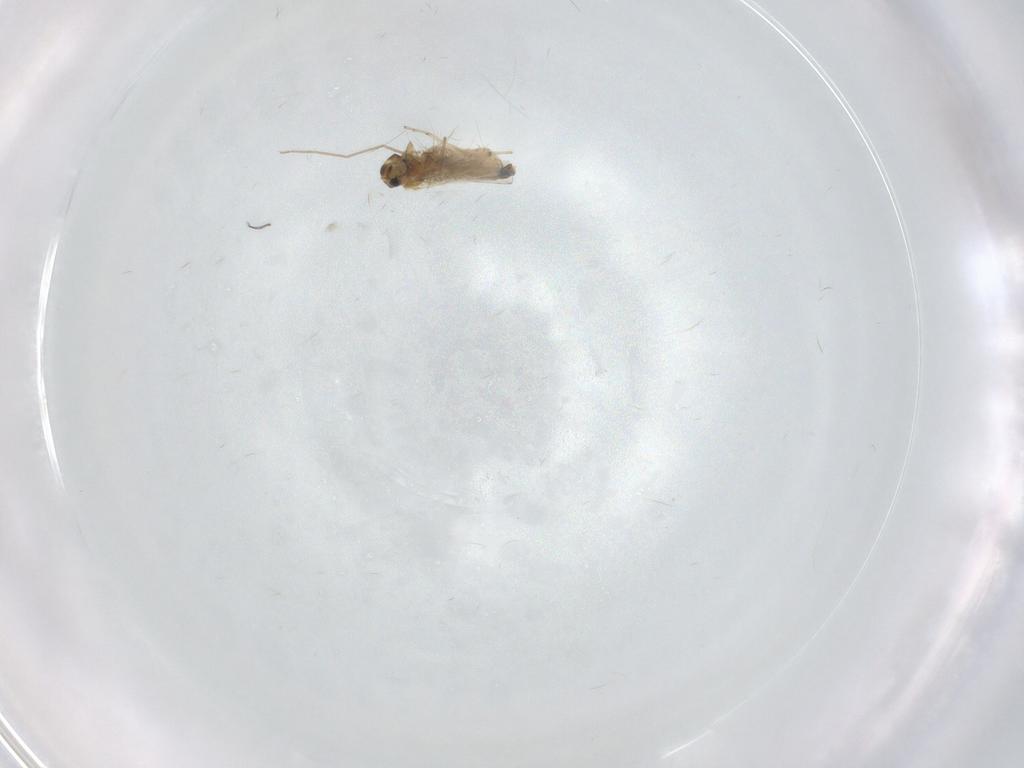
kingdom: Animalia
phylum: Arthropoda
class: Insecta
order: Diptera
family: Chironomidae
